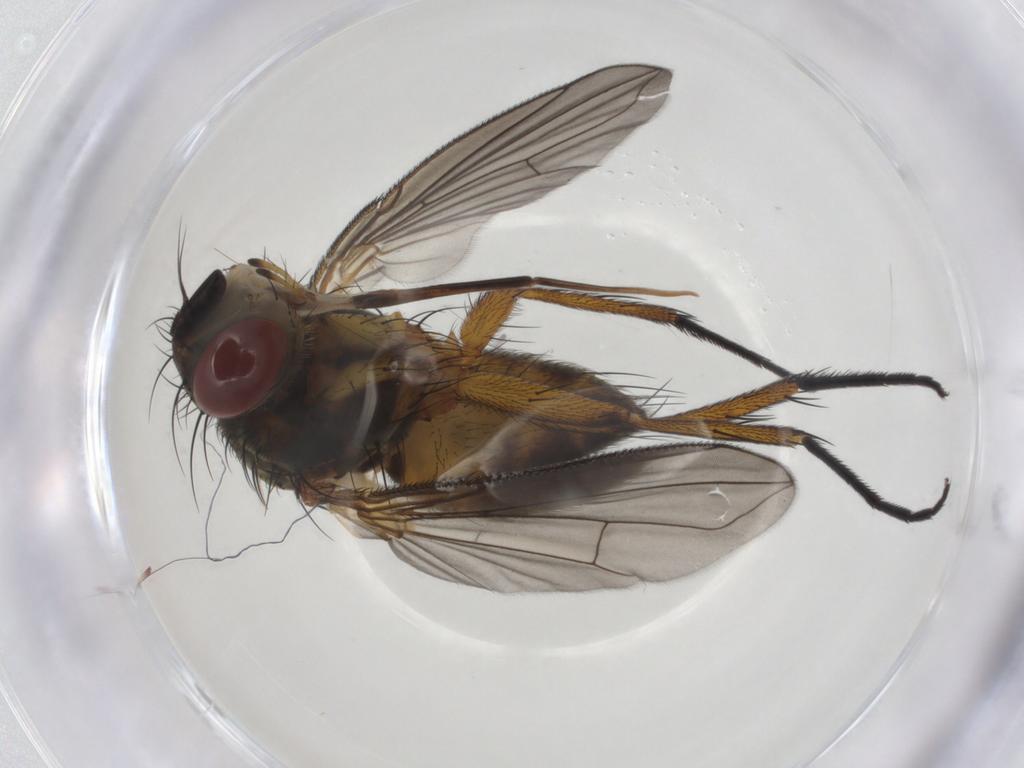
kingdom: Animalia
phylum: Arthropoda
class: Insecta
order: Diptera
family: Tachinidae
